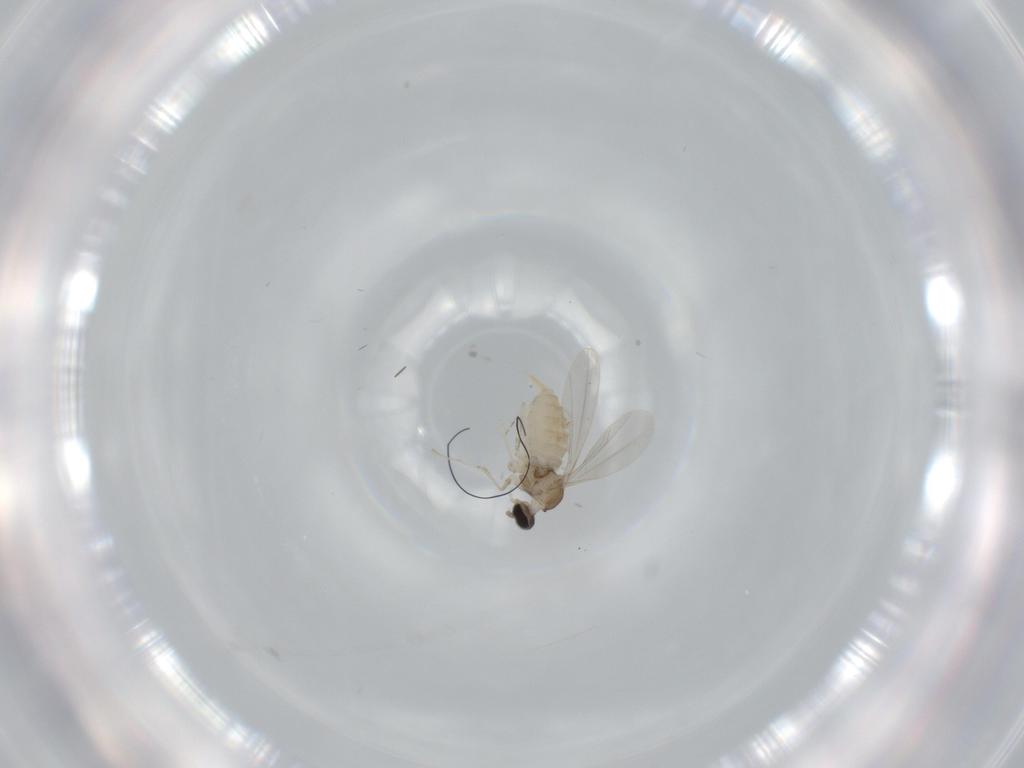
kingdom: Animalia
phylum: Arthropoda
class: Insecta
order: Diptera
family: Cecidomyiidae
